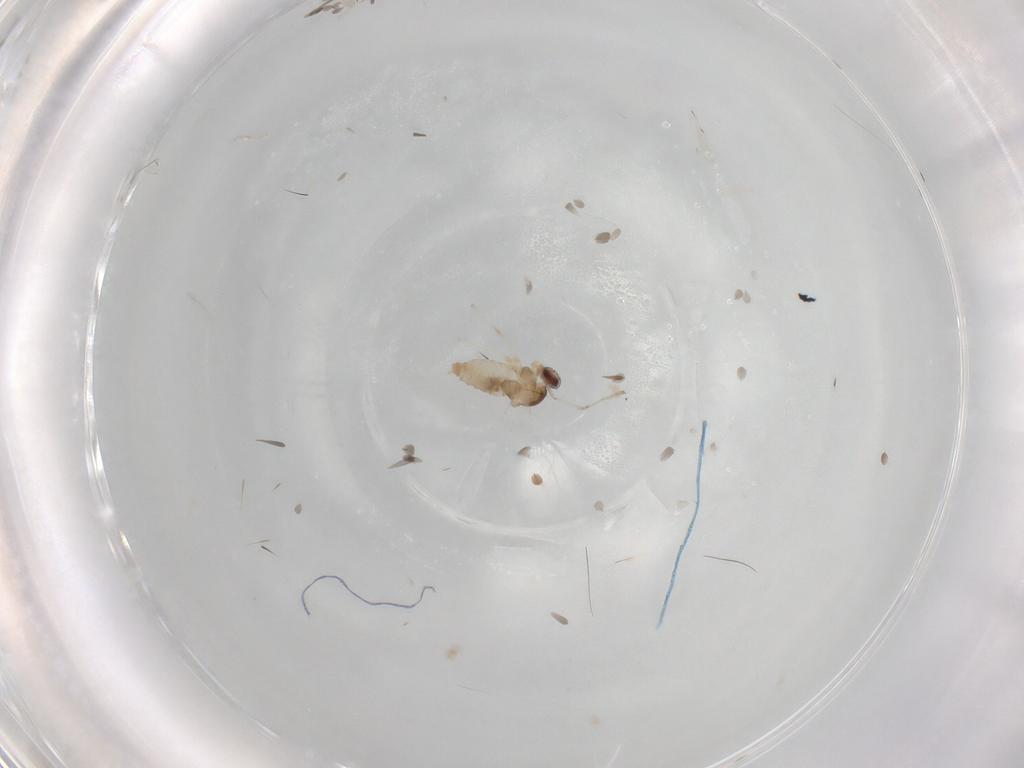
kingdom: Animalia
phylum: Arthropoda
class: Insecta
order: Diptera
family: Cecidomyiidae
